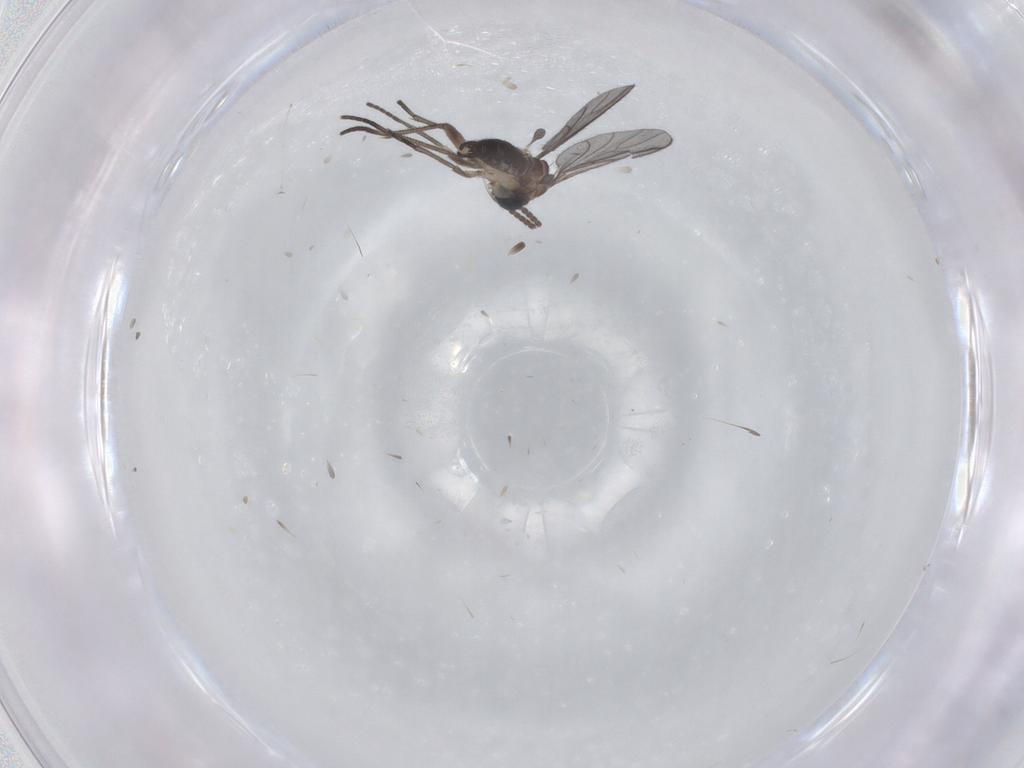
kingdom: Animalia
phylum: Arthropoda
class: Insecta
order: Diptera
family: Sciaridae
